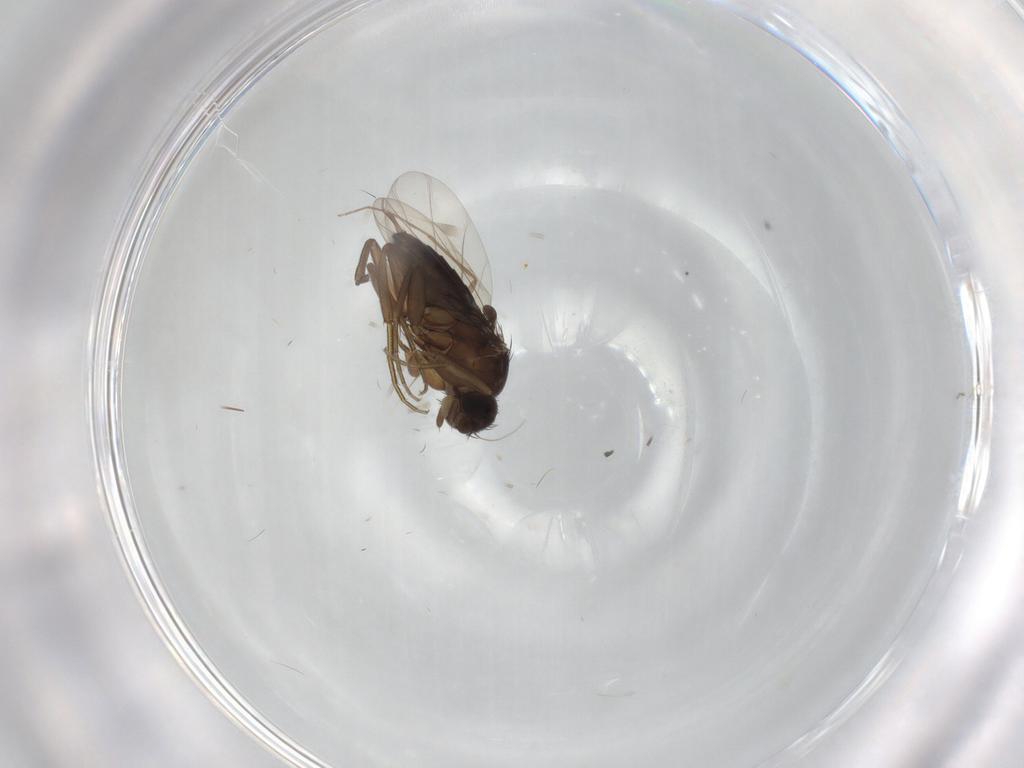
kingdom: Animalia
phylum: Arthropoda
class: Insecta
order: Diptera
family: Phoridae
